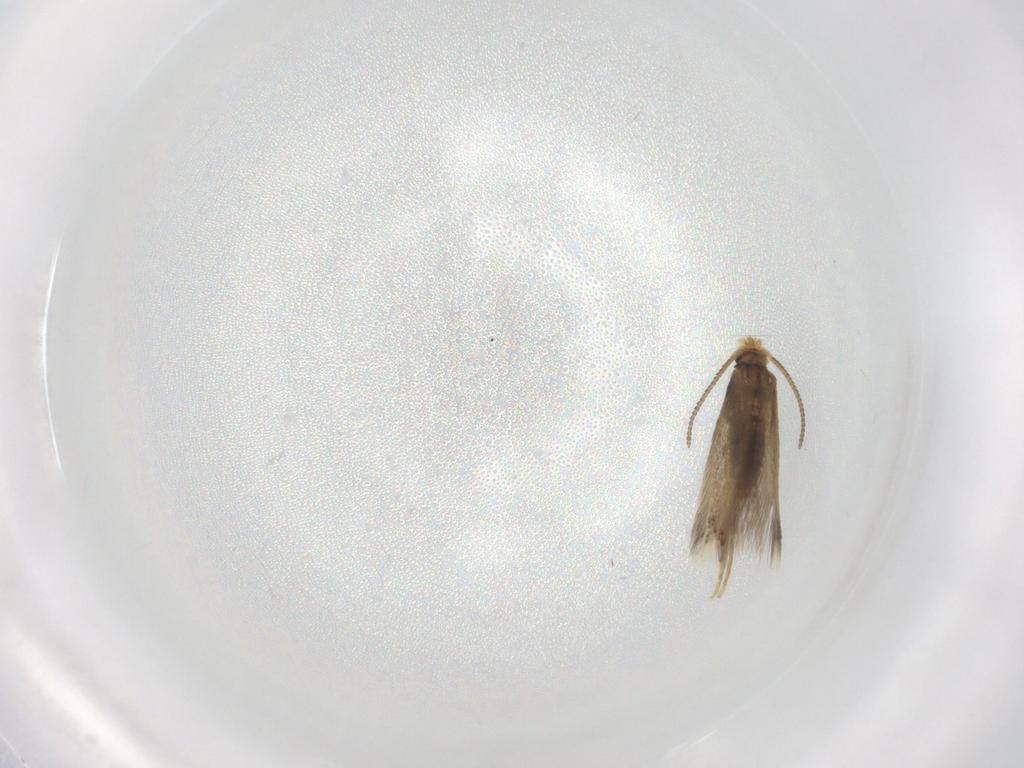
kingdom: Animalia
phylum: Arthropoda
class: Insecta
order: Lepidoptera
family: Nepticulidae
